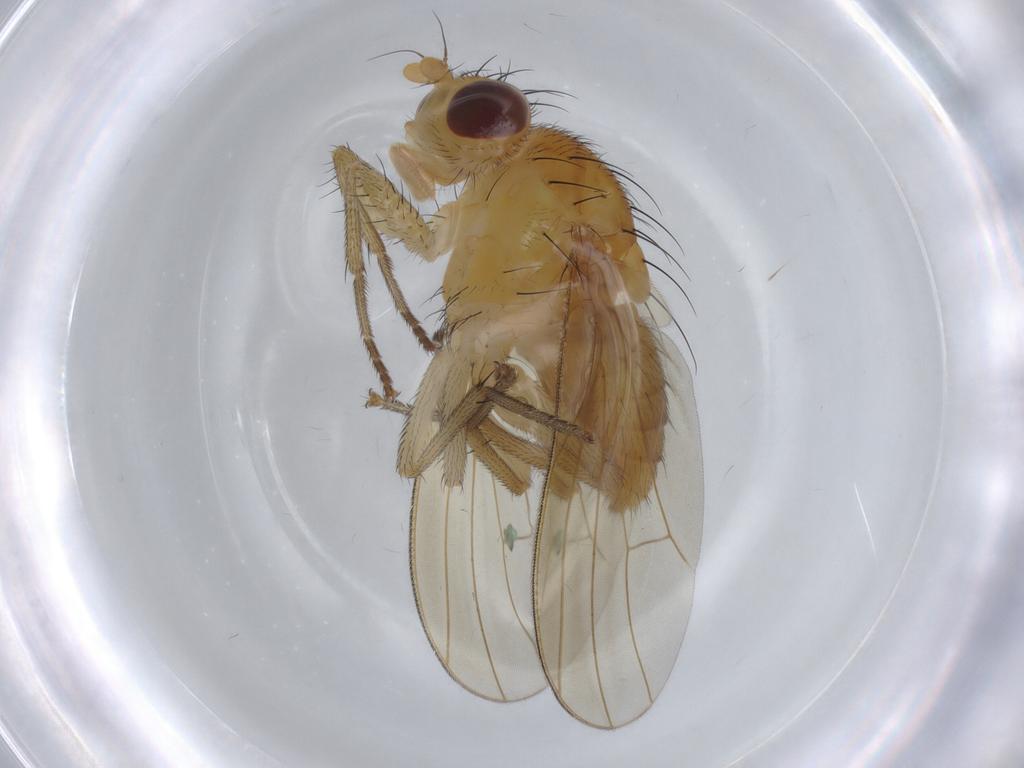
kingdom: Animalia
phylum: Arthropoda
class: Insecta
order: Diptera
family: Lauxaniidae
